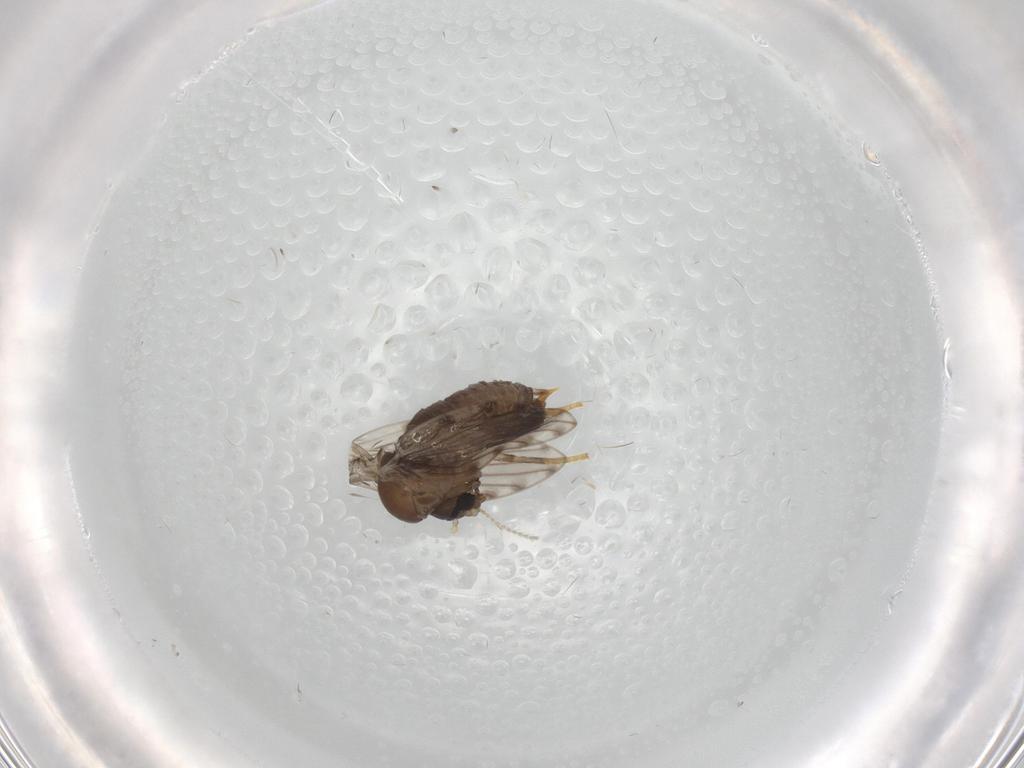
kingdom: Animalia
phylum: Arthropoda
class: Insecta
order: Diptera
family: Psychodidae
